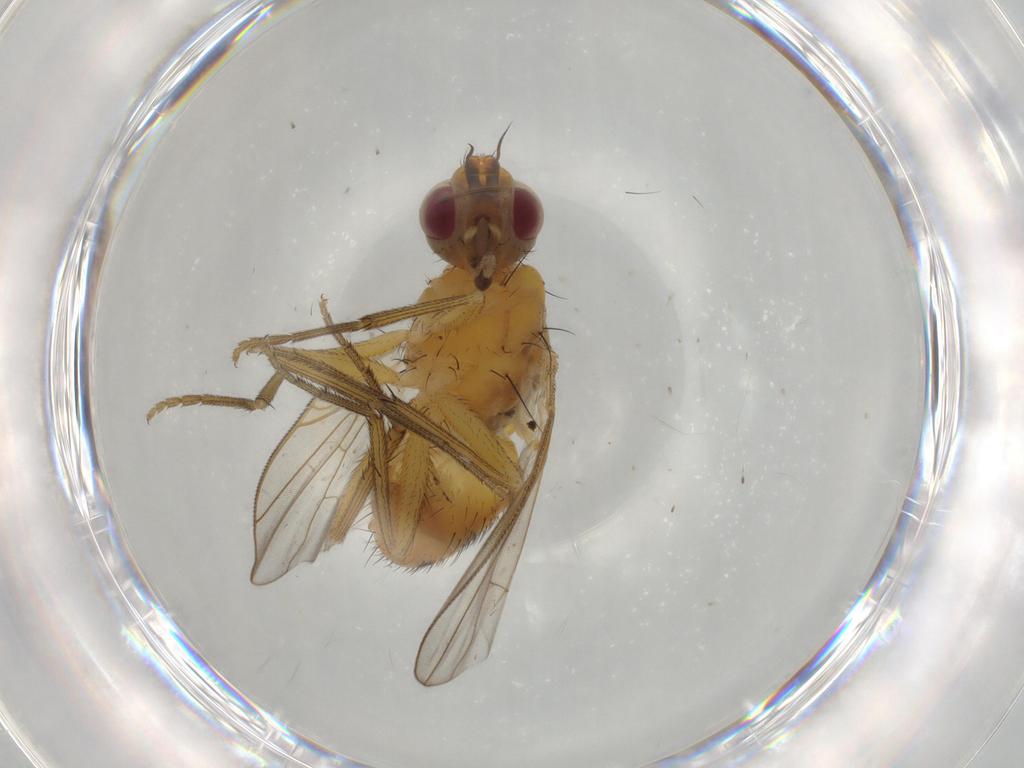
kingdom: Animalia
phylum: Arthropoda
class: Insecta
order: Diptera
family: Muscidae
